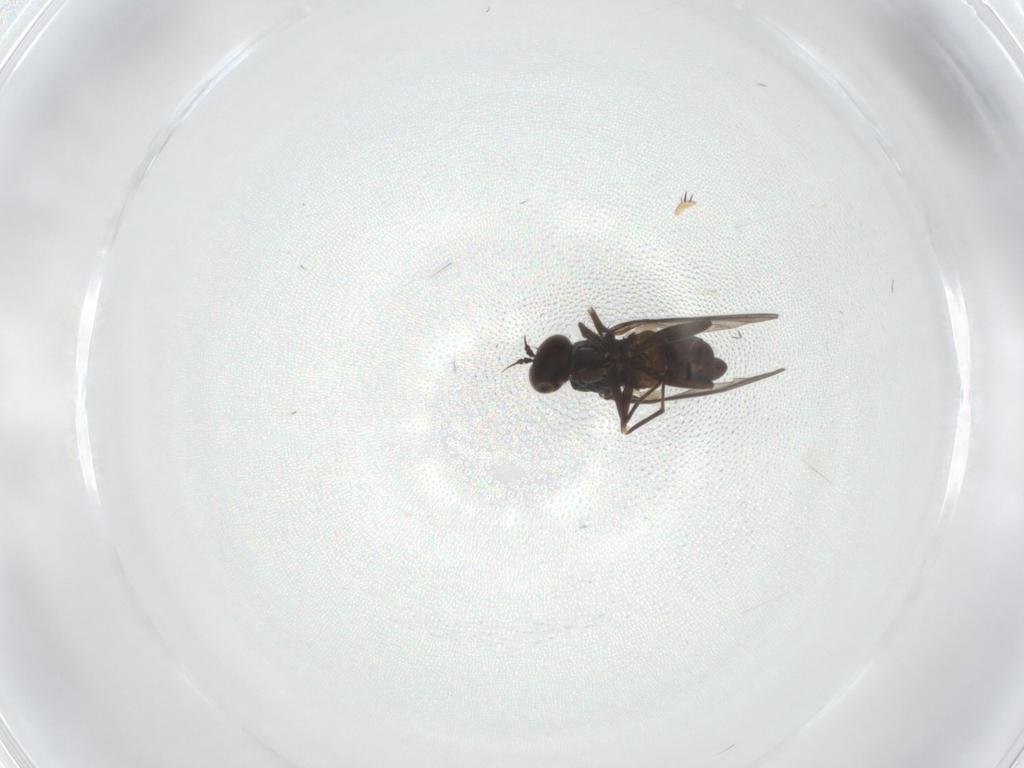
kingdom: Animalia
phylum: Arthropoda
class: Insecta
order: Diptera
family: Dolichopodidae
